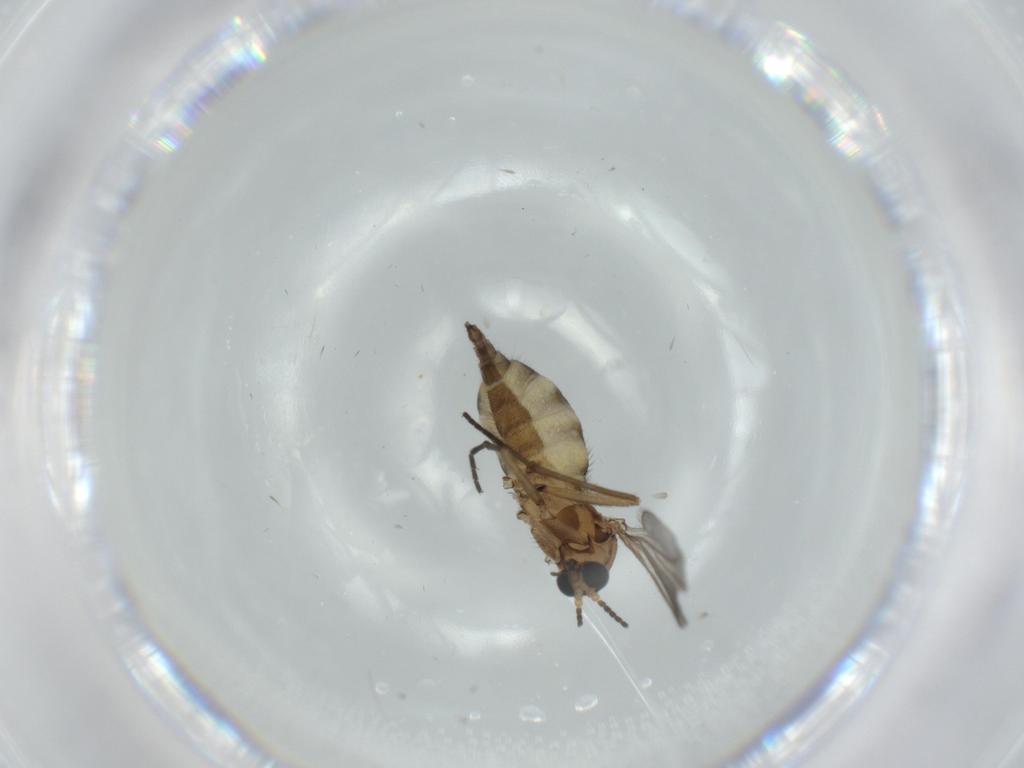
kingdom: Animalia
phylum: Arthropoda
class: Insecta
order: Diptera
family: Sciaridae
